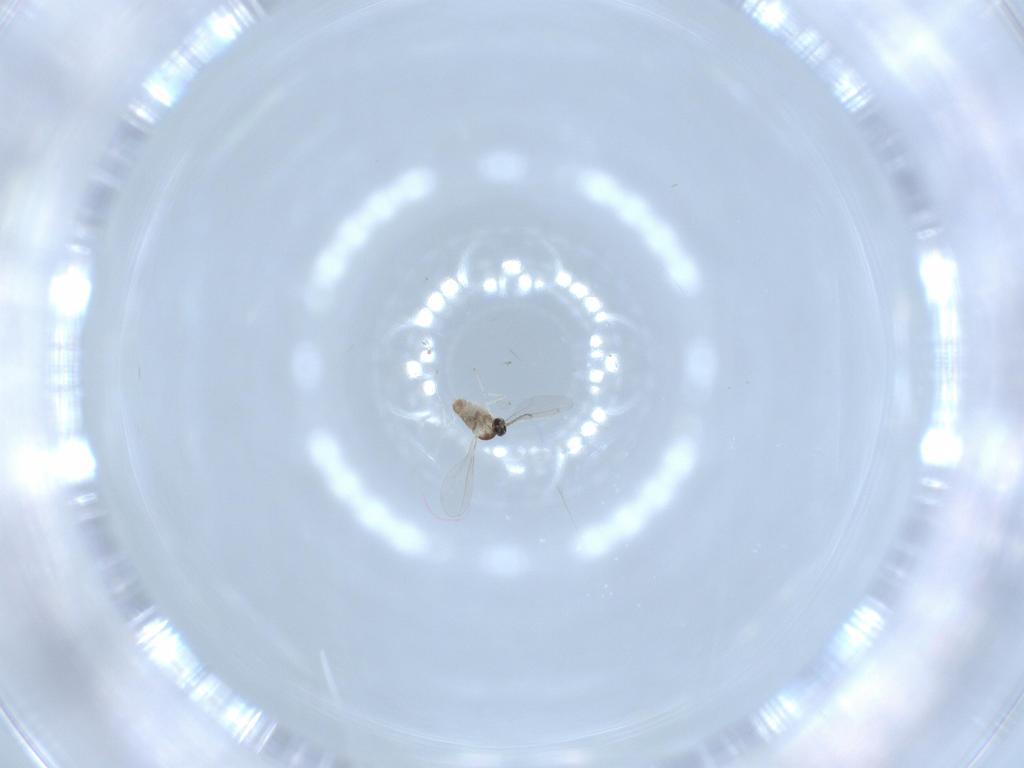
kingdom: Animalia
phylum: Arthropoda
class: Insecta
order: Diptera
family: Cecidomyiidae
